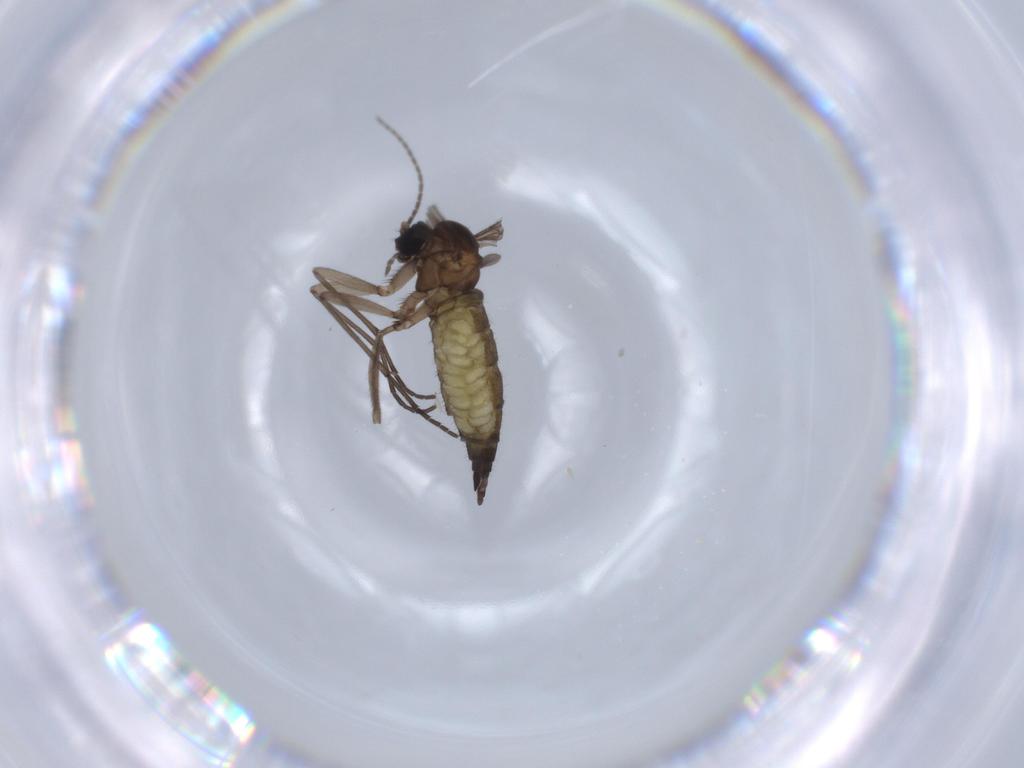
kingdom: Animalia
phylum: Arthropoda
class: Insecta
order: Diptera
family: Sciaridae
